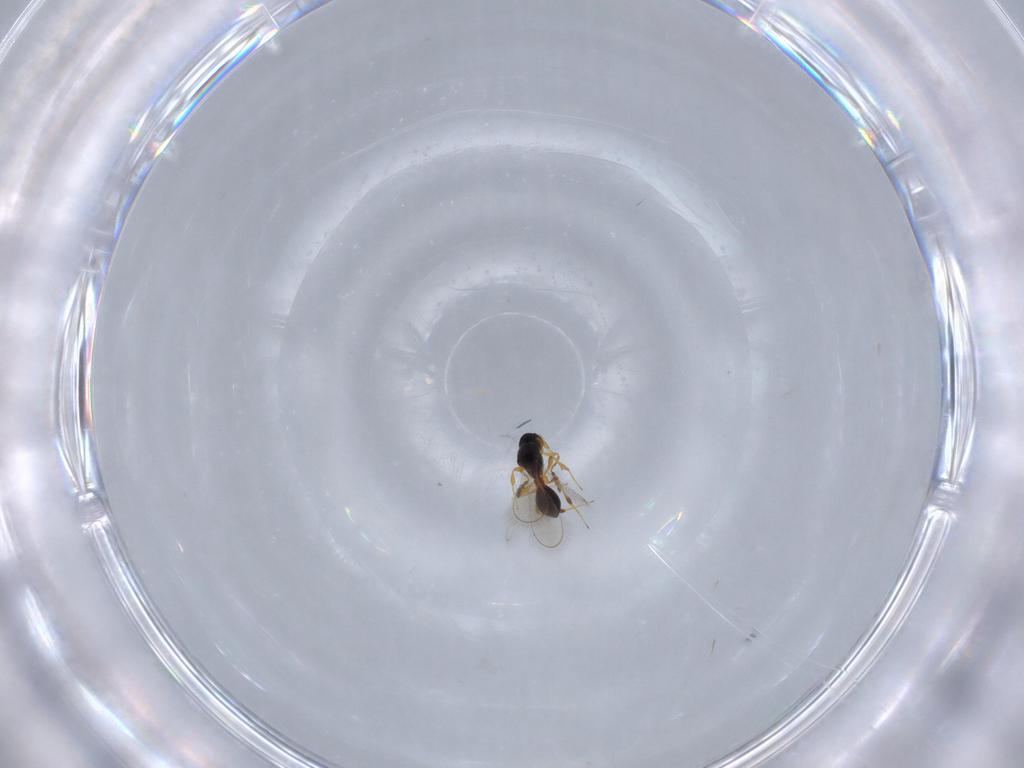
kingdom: Animalia
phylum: Arthropoda
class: Insecta
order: Hymenoptera
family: Platygastridae
